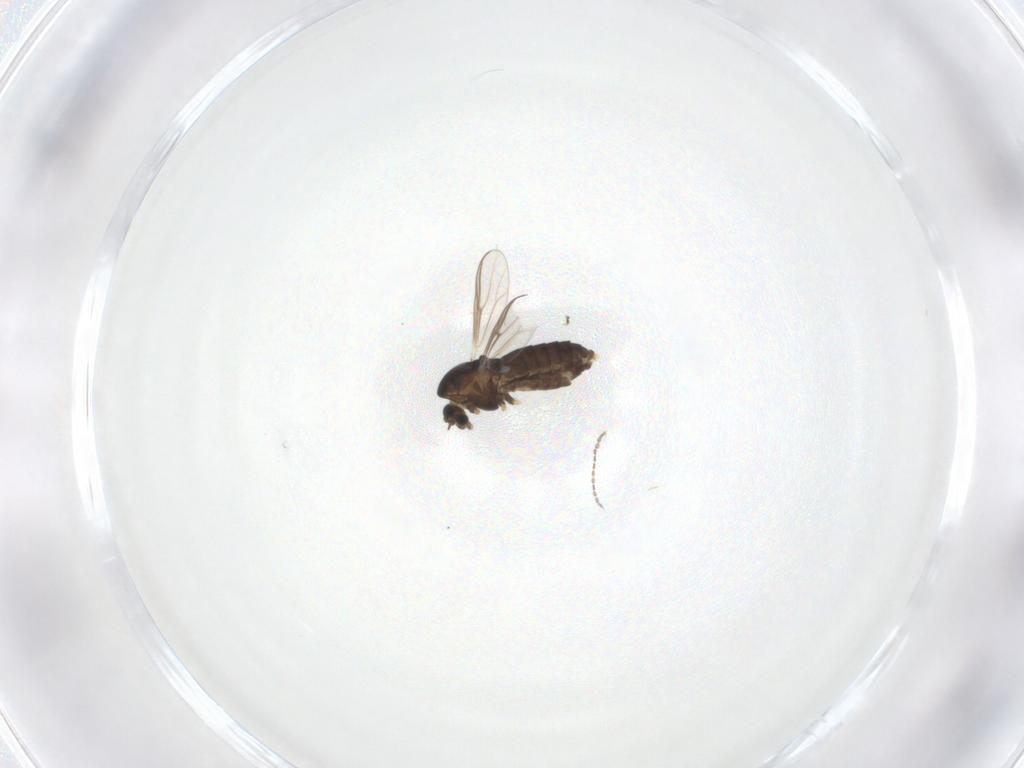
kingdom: Animalia
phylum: Arthropoda
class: Insecta
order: Diptera
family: Chironomidae
